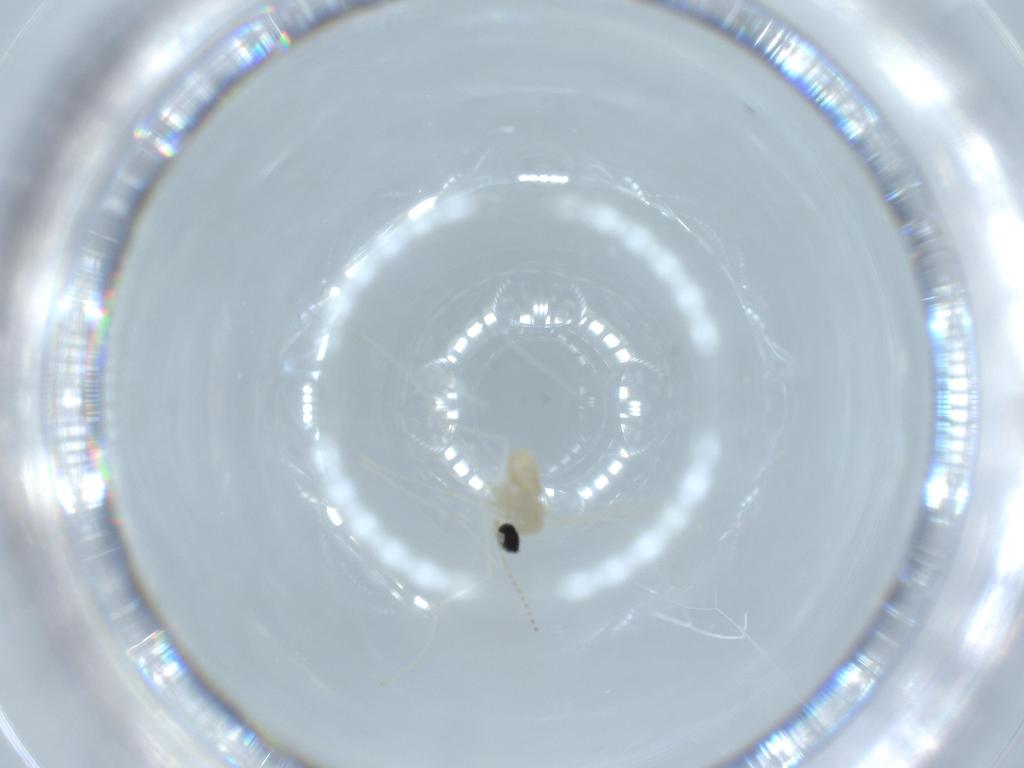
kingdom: Animalia
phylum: Arthropoda
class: Insecta
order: Diptera
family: Cecidomyiidae
